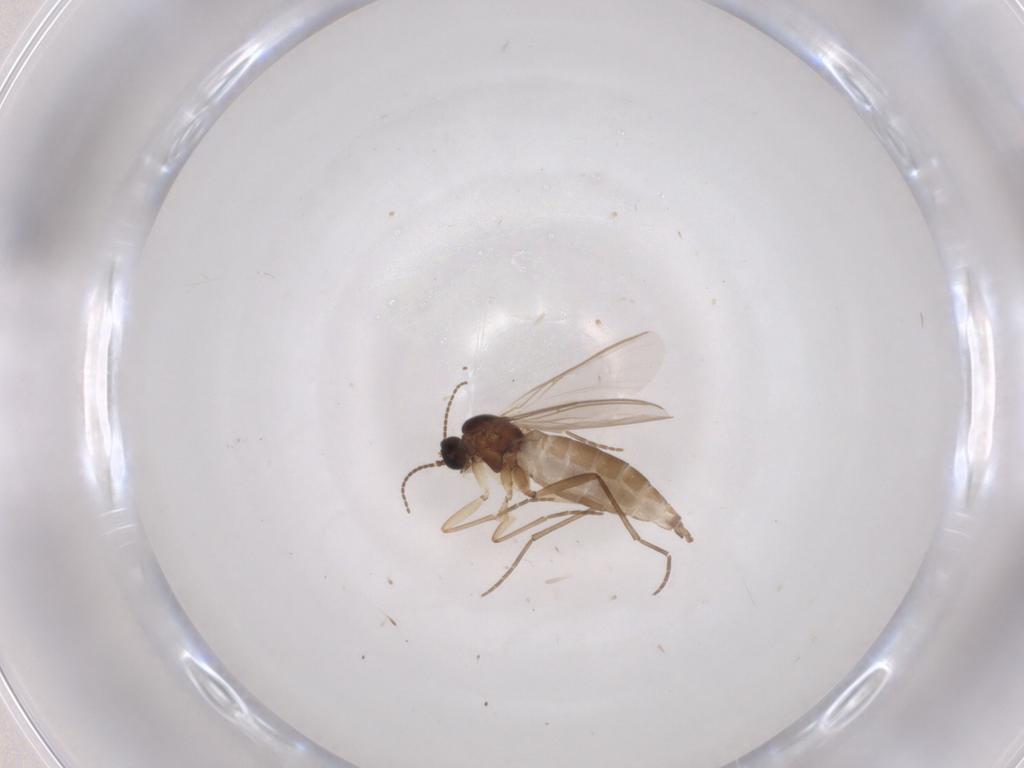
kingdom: Animalia
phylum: Arthropoda
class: Insecta
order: Diptera
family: Sciaridae
